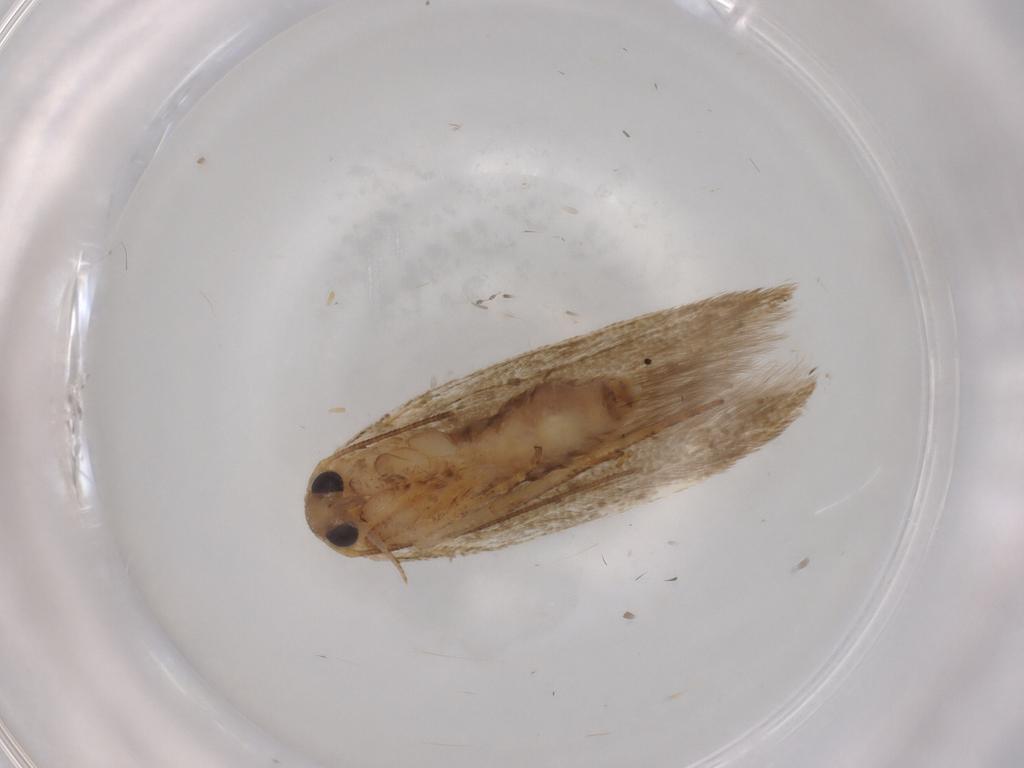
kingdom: Animalia
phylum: Arthropoda
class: Insecta
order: Lepidoptera
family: Blastobasidae
